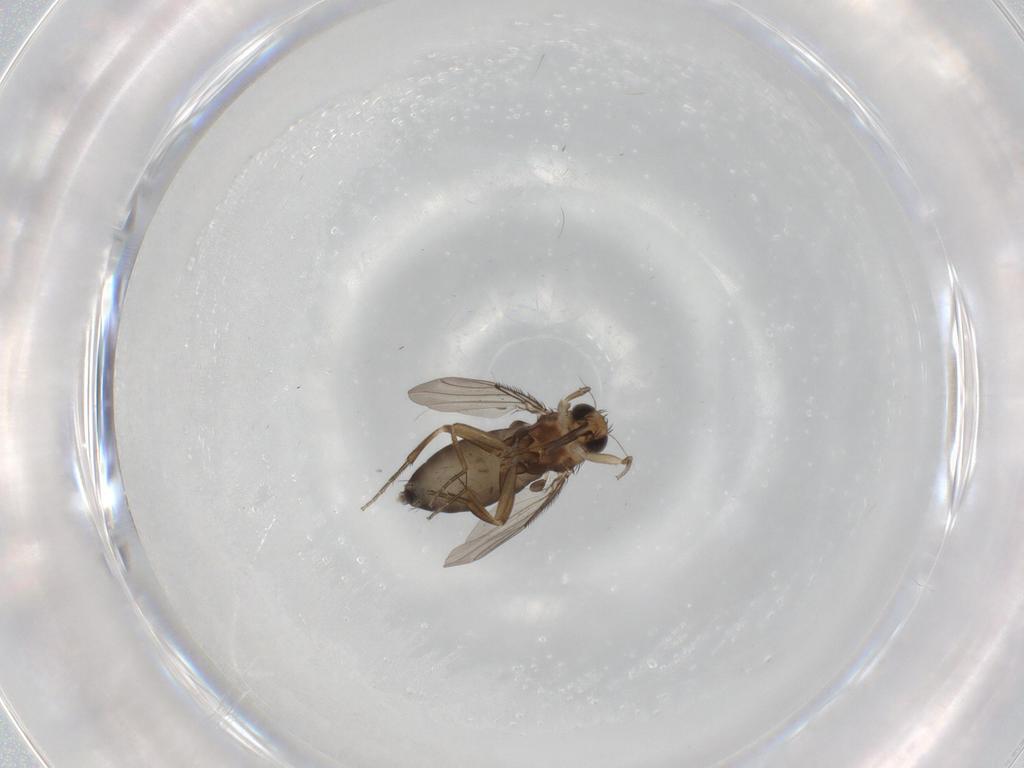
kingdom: Animalia
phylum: Arthropoda
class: Insecta
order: Diptera
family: Phoridae
